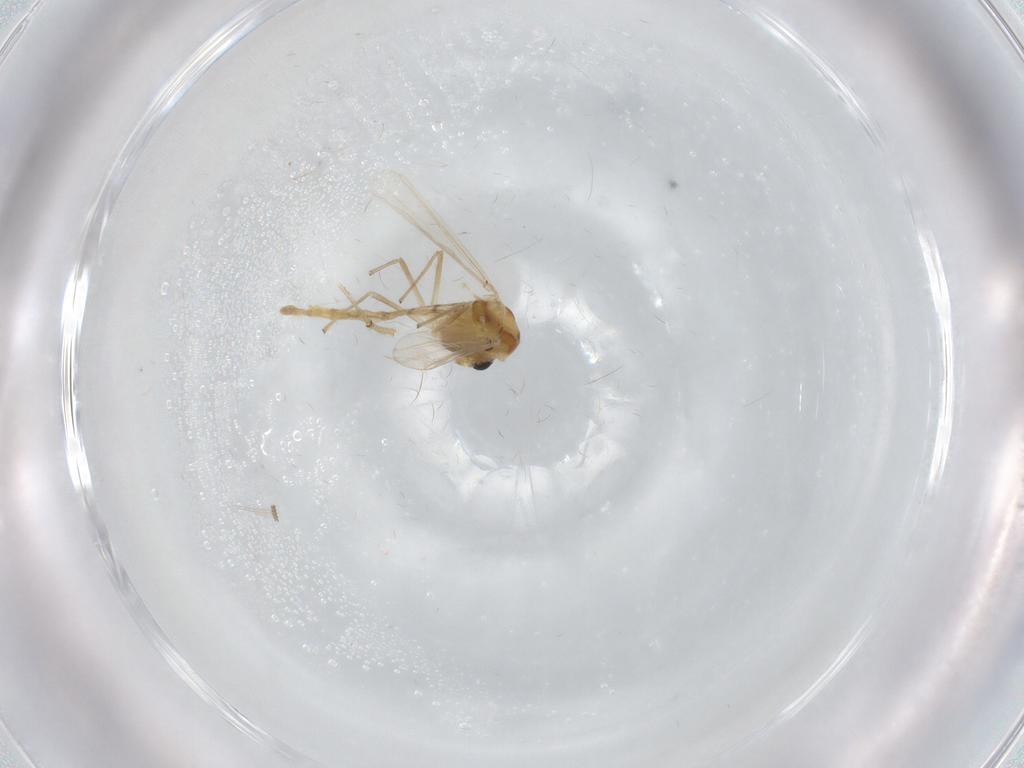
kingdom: Animalia
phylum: Arthropoda
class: Insecta
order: Diptera
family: Chironomidae
